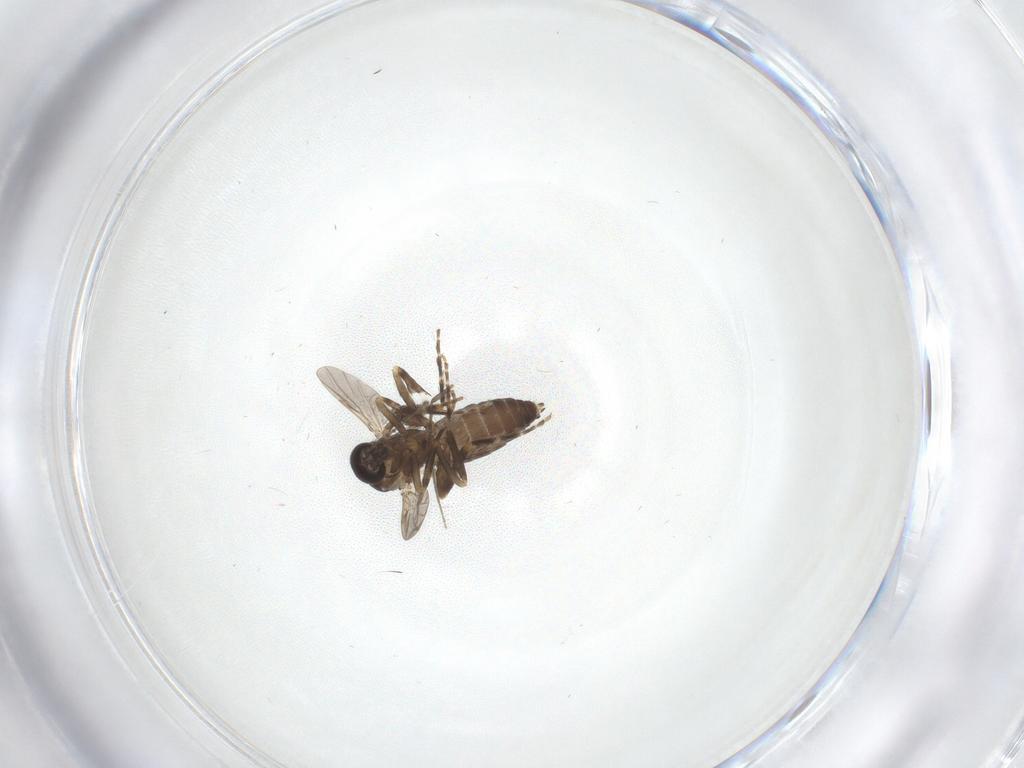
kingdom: Animalia
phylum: Arthropoda
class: Insecta
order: Diptera
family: Chironomidae
